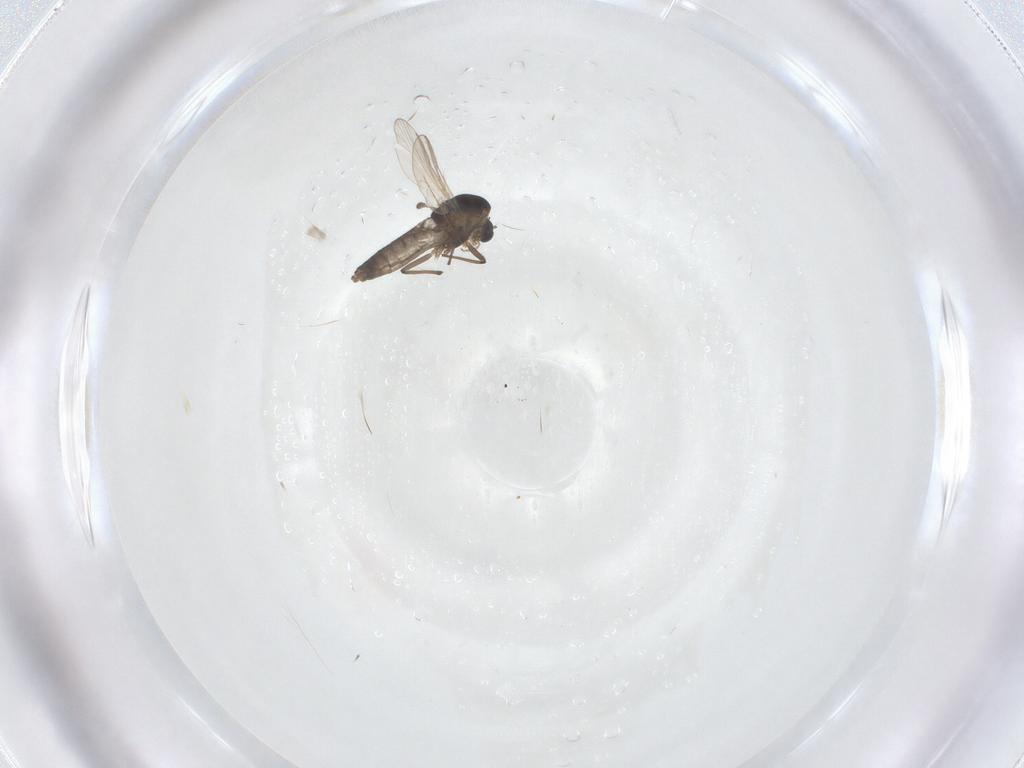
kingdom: Animalia
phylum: Arthropoda
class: Insecta
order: Diptera
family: Chironomidae
